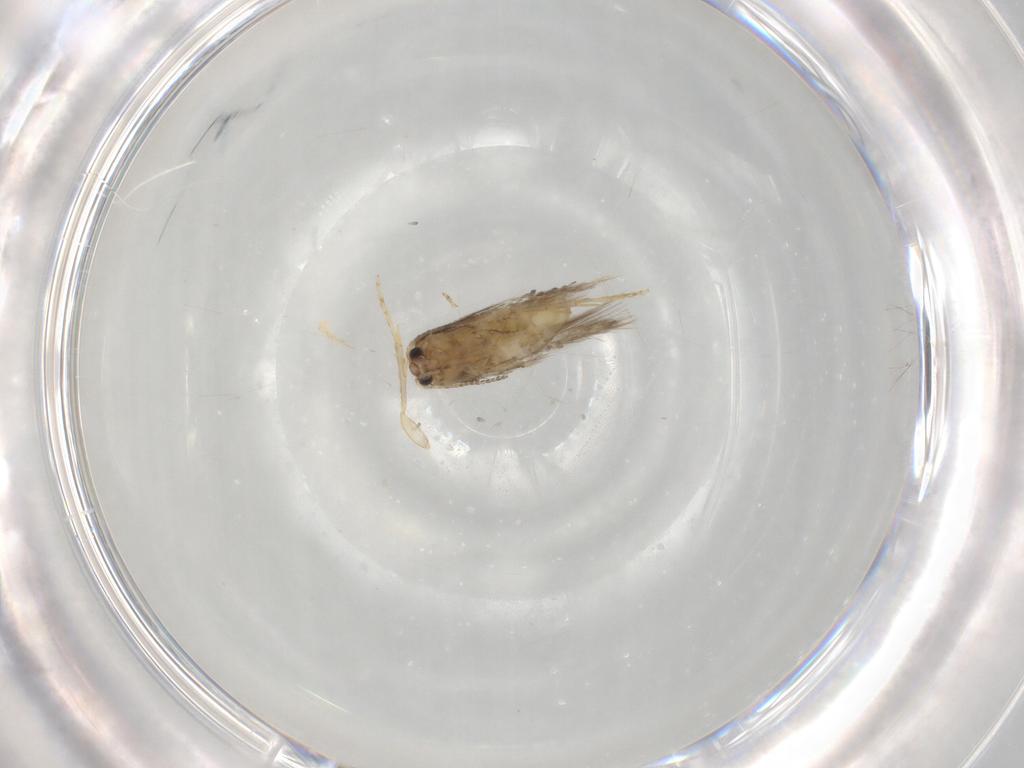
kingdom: Animalia
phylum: Arthropoda
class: Insecta
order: Lepidoptera
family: Nepticulidae
